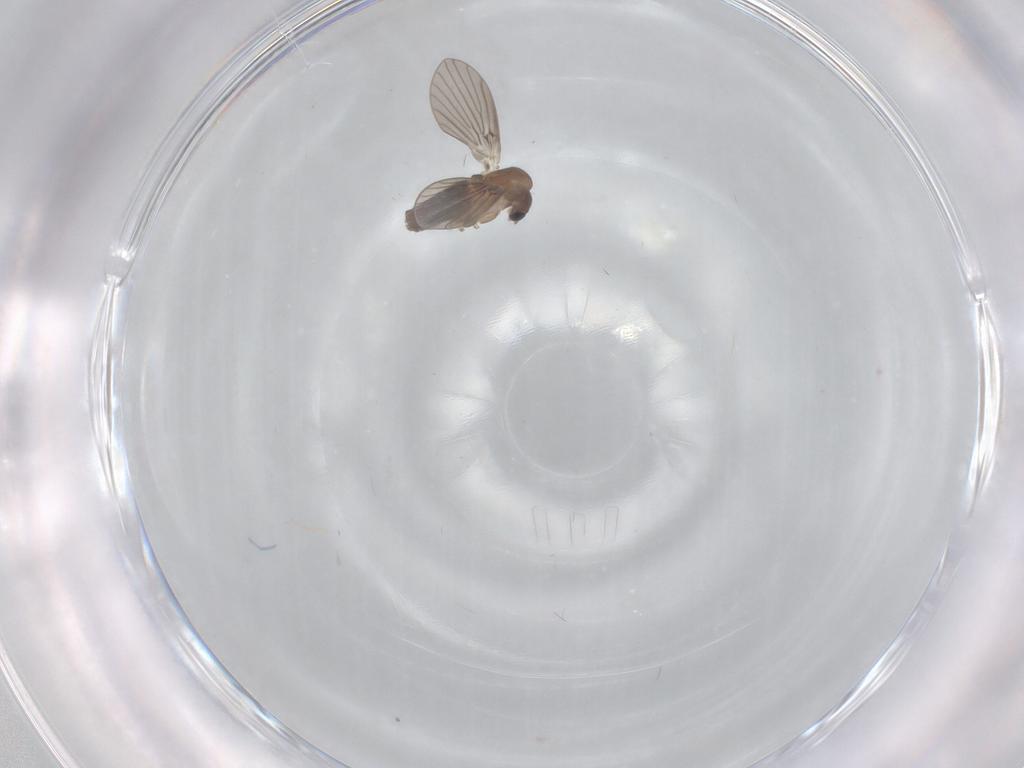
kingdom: Animalia
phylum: Arthropoda
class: Insecta
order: Diptera
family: Psychodidae
